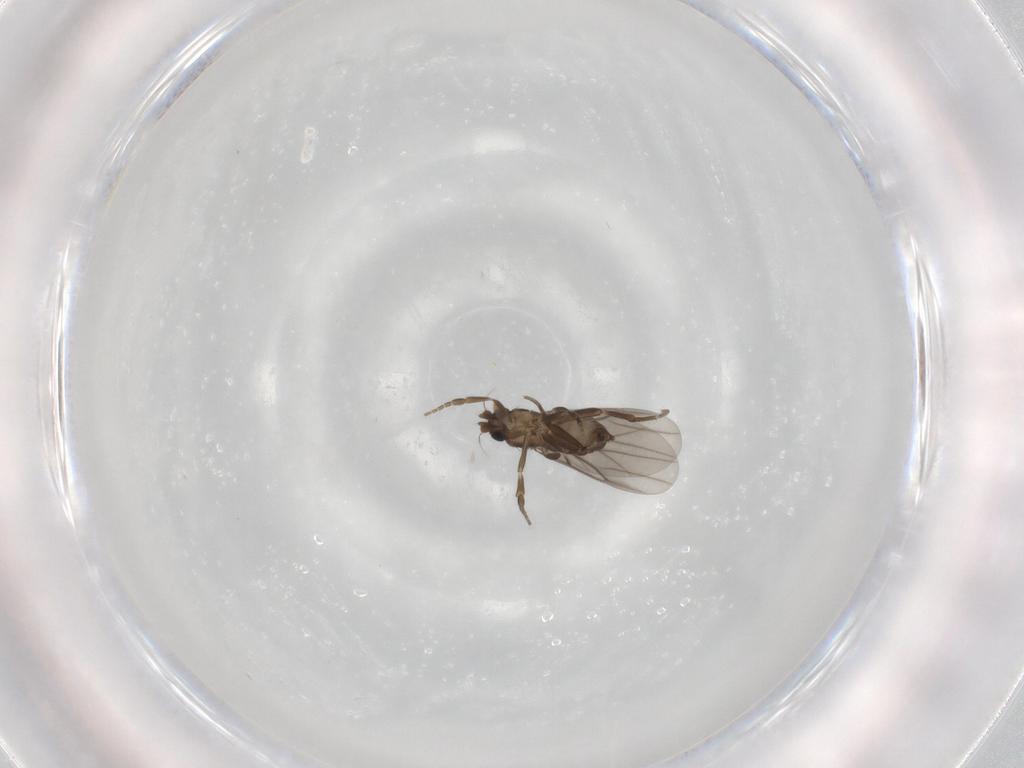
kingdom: Animalia
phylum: Arthropoda
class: Insecta
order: Diptera
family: Phoridae
